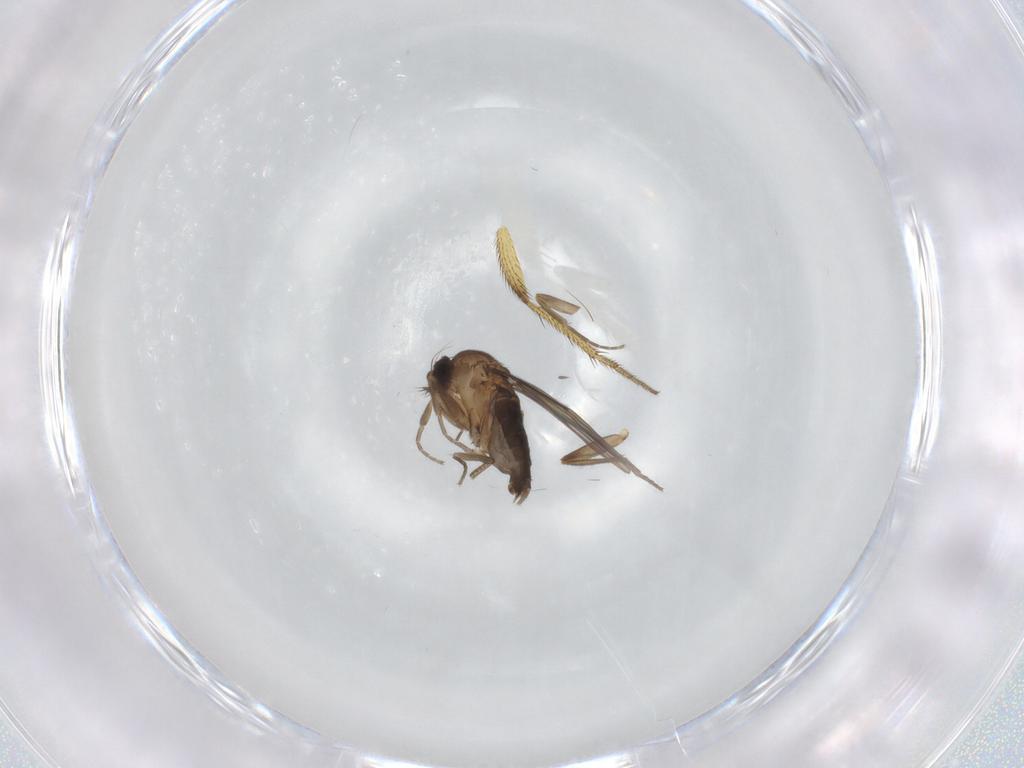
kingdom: Animalia
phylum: Arthropoda
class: Insecta
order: Diptera
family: Phoridae
